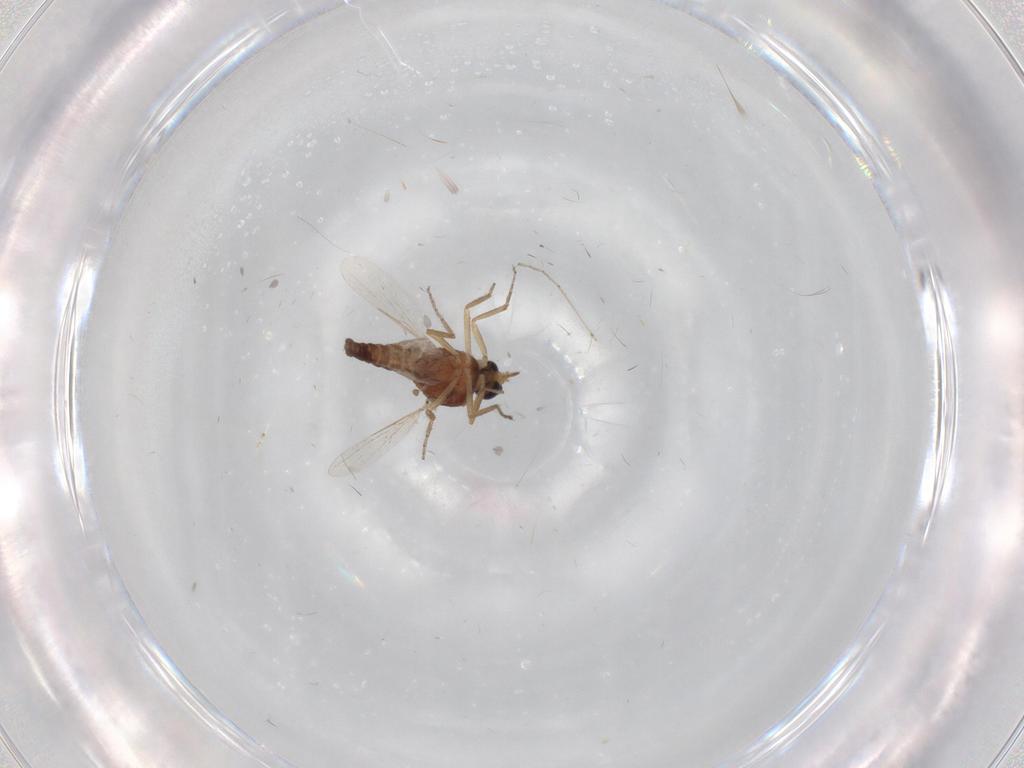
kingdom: Animalia
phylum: Arthropoda
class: Insecta
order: Diptera
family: Ceratopogonidae
